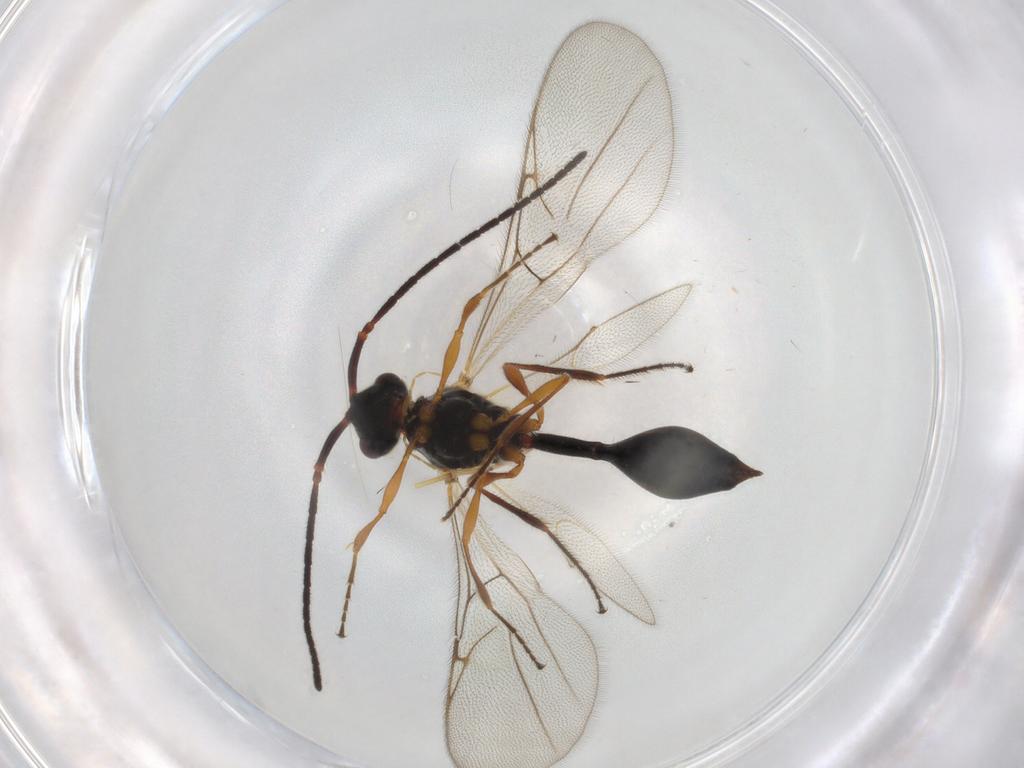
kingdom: Animalia
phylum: Arthropoda
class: Insecta
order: Hymenoptera
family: Diapriidae
